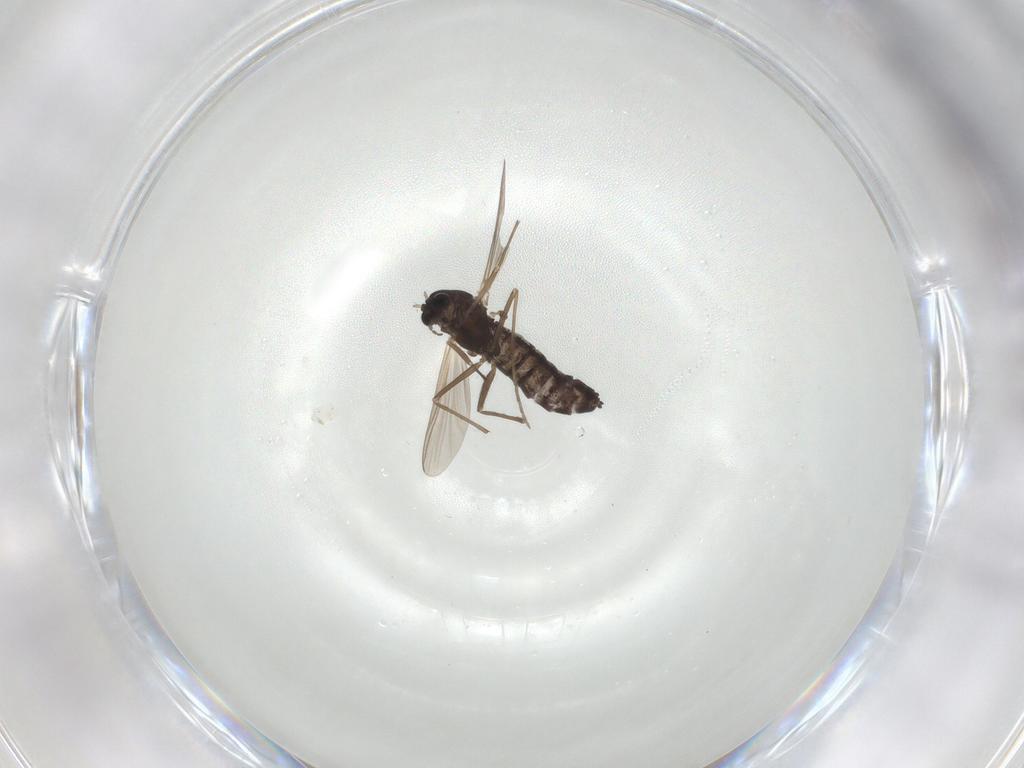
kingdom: Animalia
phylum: Arthropoda
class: Insecta
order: Diptera
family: Chironomidae
